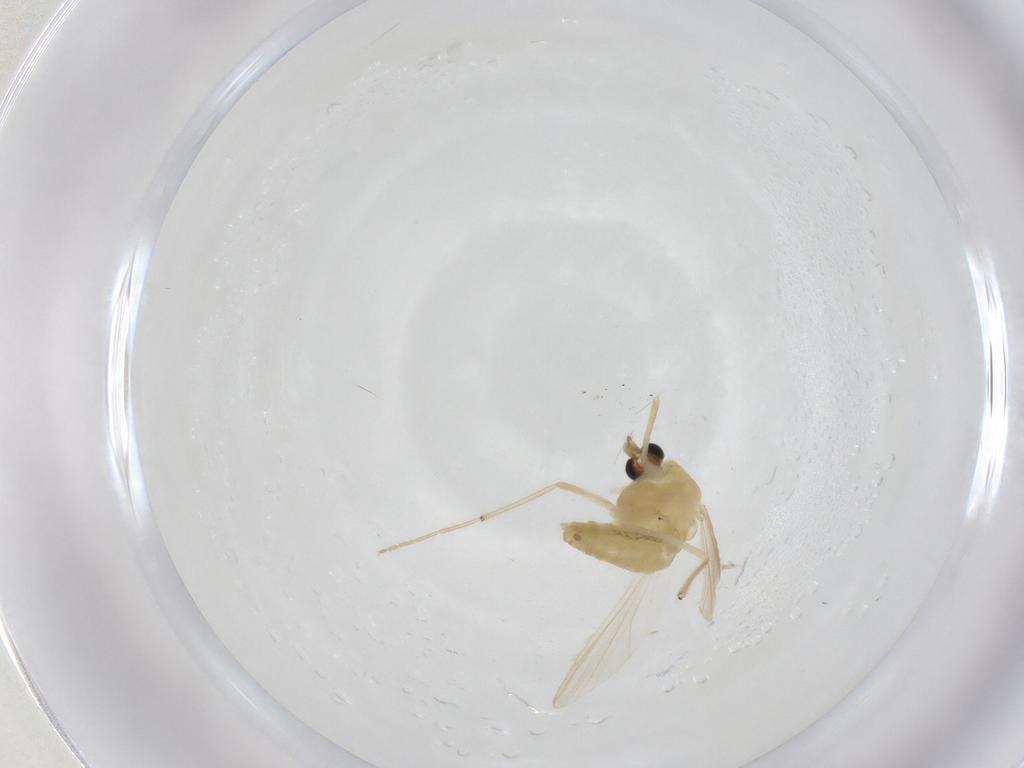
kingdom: Animalia
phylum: Arthropoda
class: Insecta
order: Diptera
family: Chironomidae
